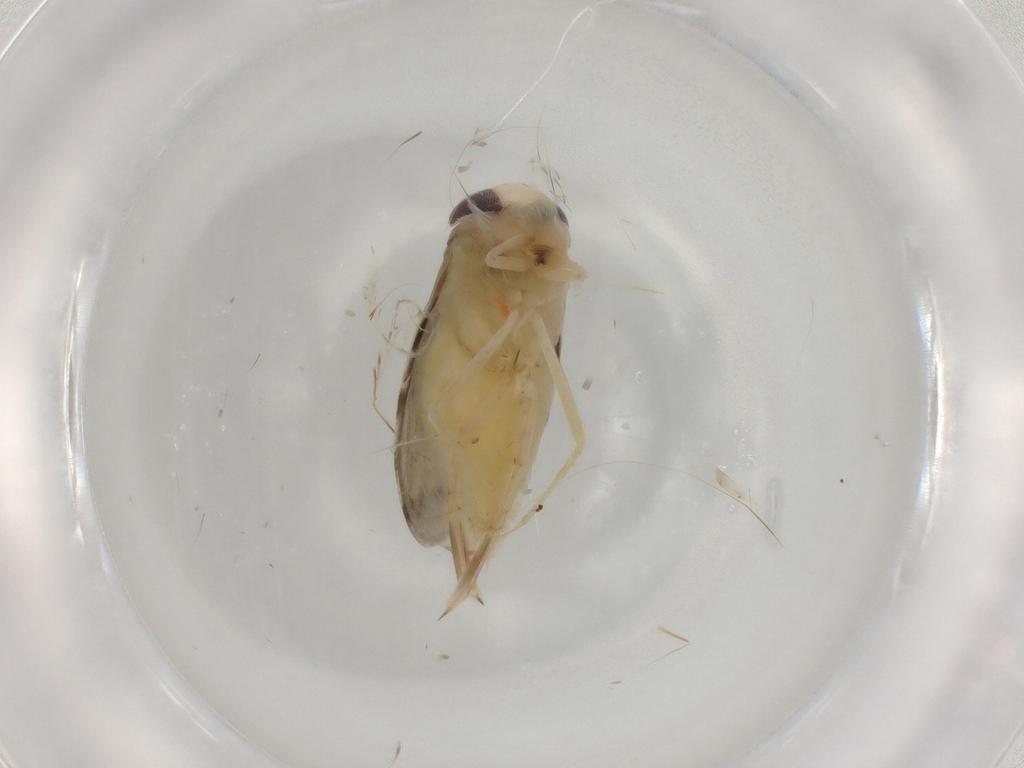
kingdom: Animalia
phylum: Arthropoda
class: Insecta
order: Hemiptera
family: Corixidae
